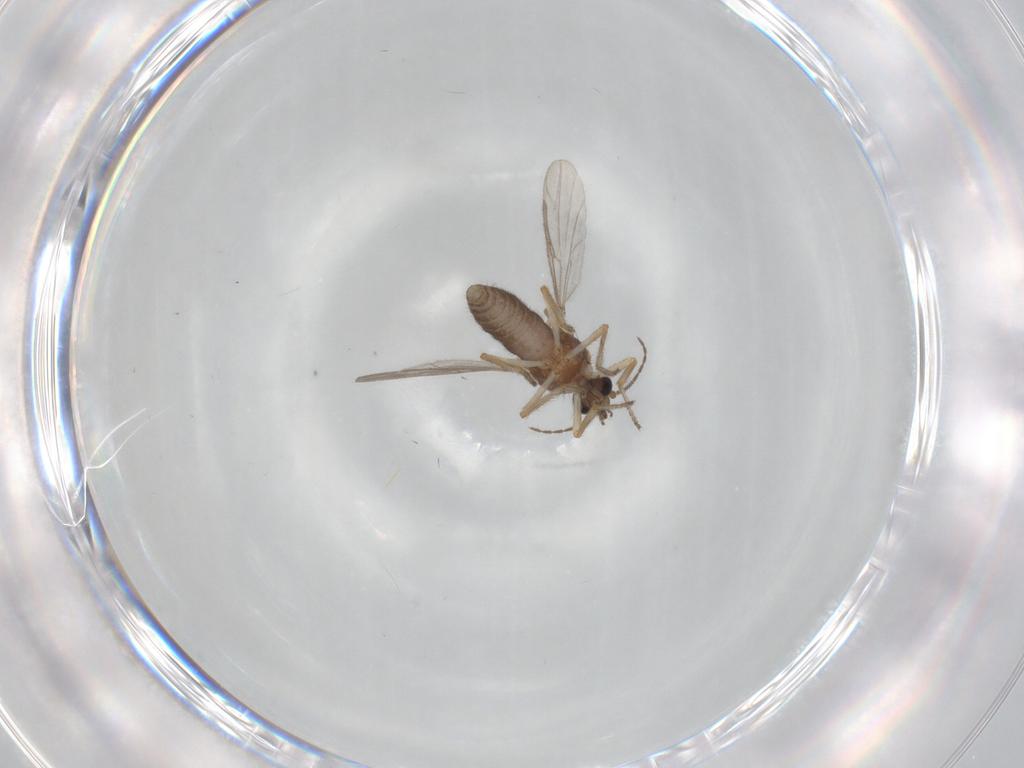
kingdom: Animalia
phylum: Arthropoda
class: Insecta
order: Diptera
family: Ceratopogonidae
